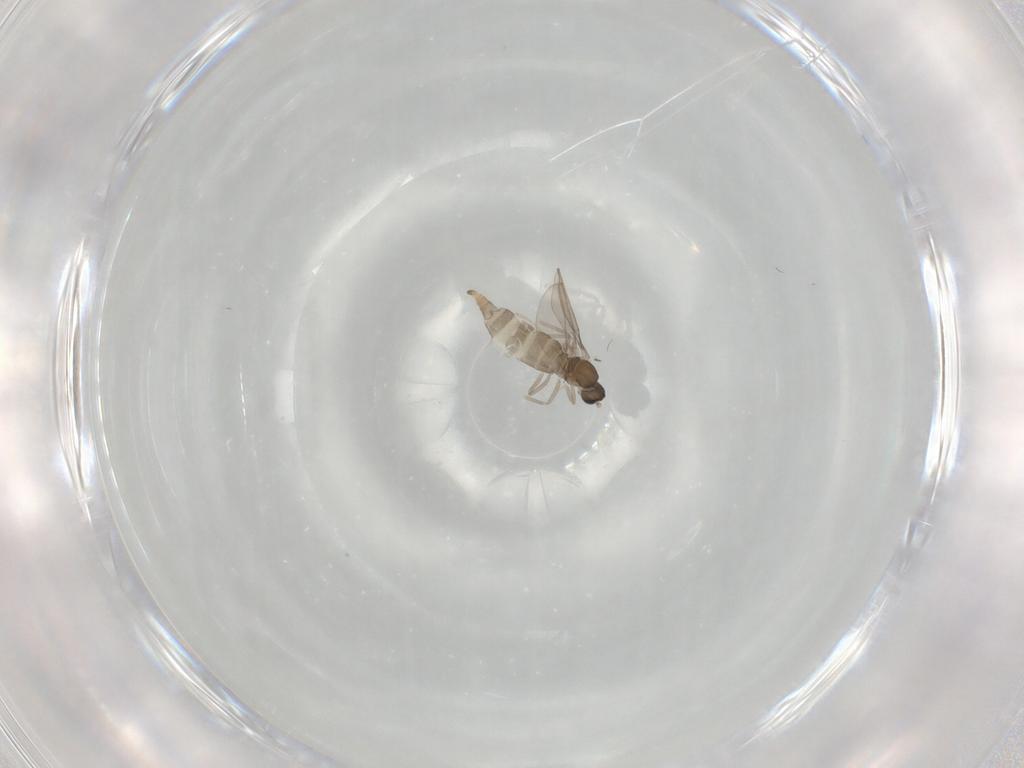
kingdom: Animalia
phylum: Arthropoda
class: Insecta
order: Diptera
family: Cecidomyiidae
